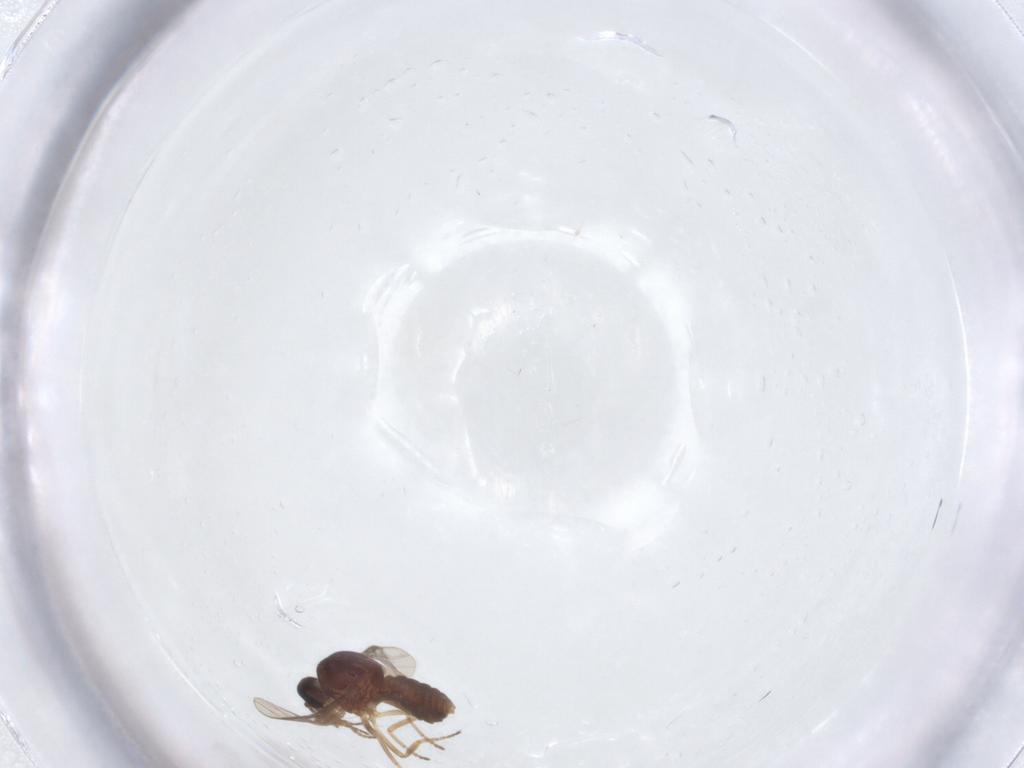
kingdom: Animalia
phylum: Arthropoda
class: Insecta
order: Diptera
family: Ceratopogonidae
